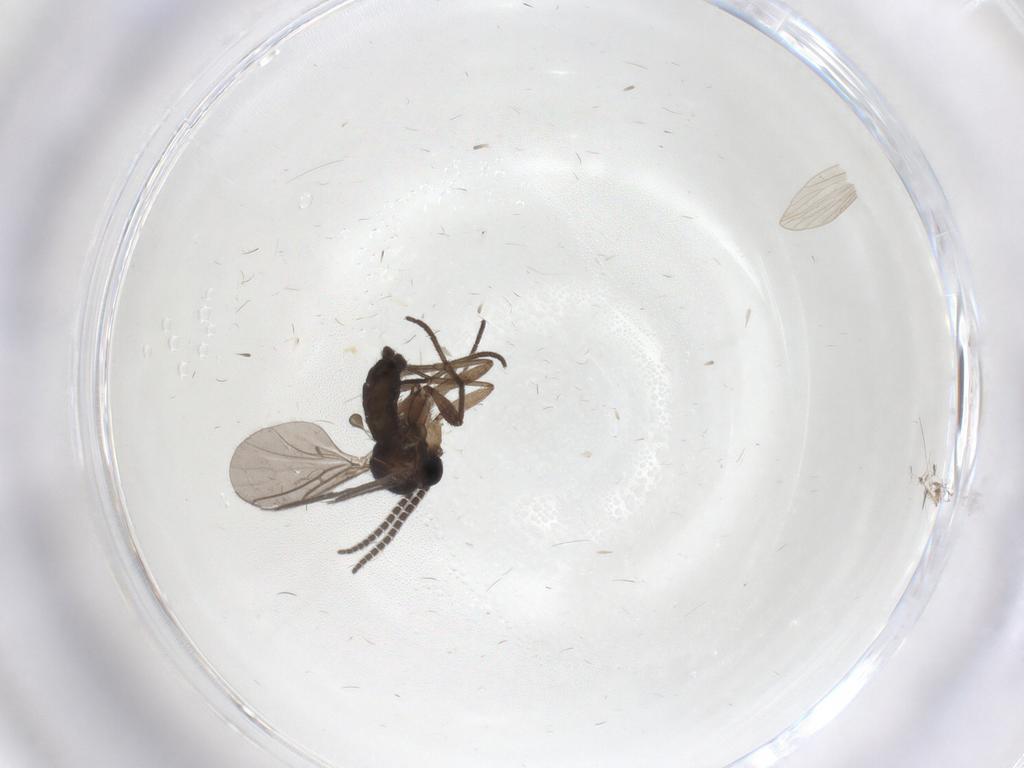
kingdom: Animalia
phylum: Arthropoda
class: Insecta
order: Diptera
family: Sciaridae
